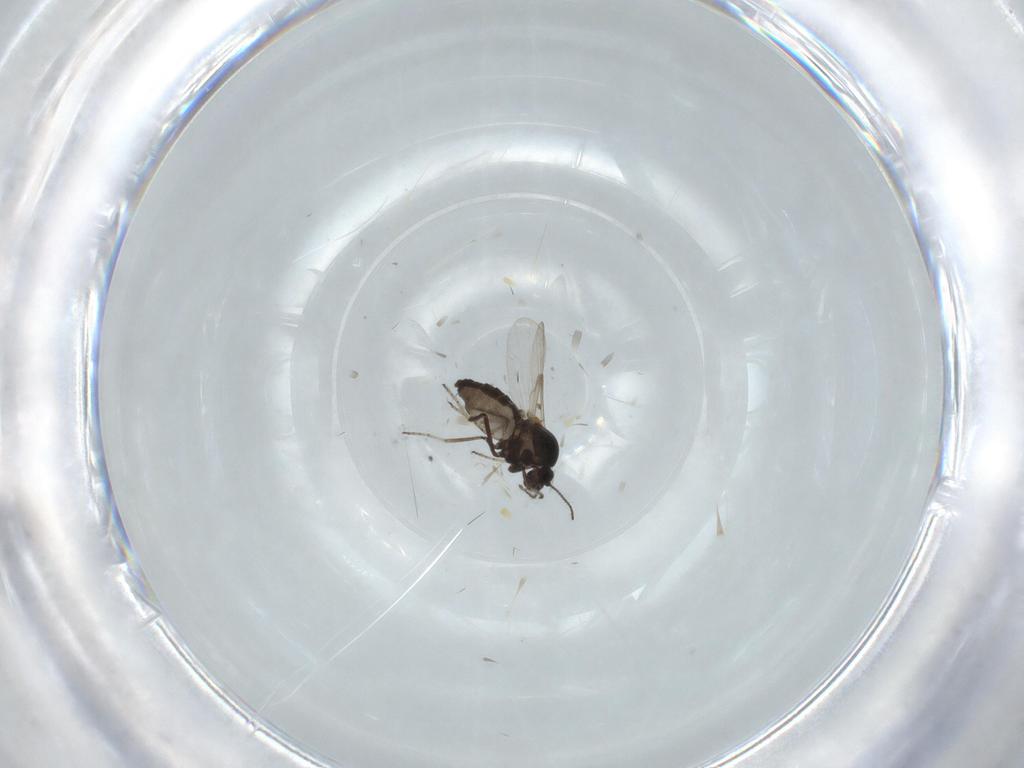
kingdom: Animalia
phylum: Arthropoda
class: Insecta
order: Diptera
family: Ceratopogonidae
